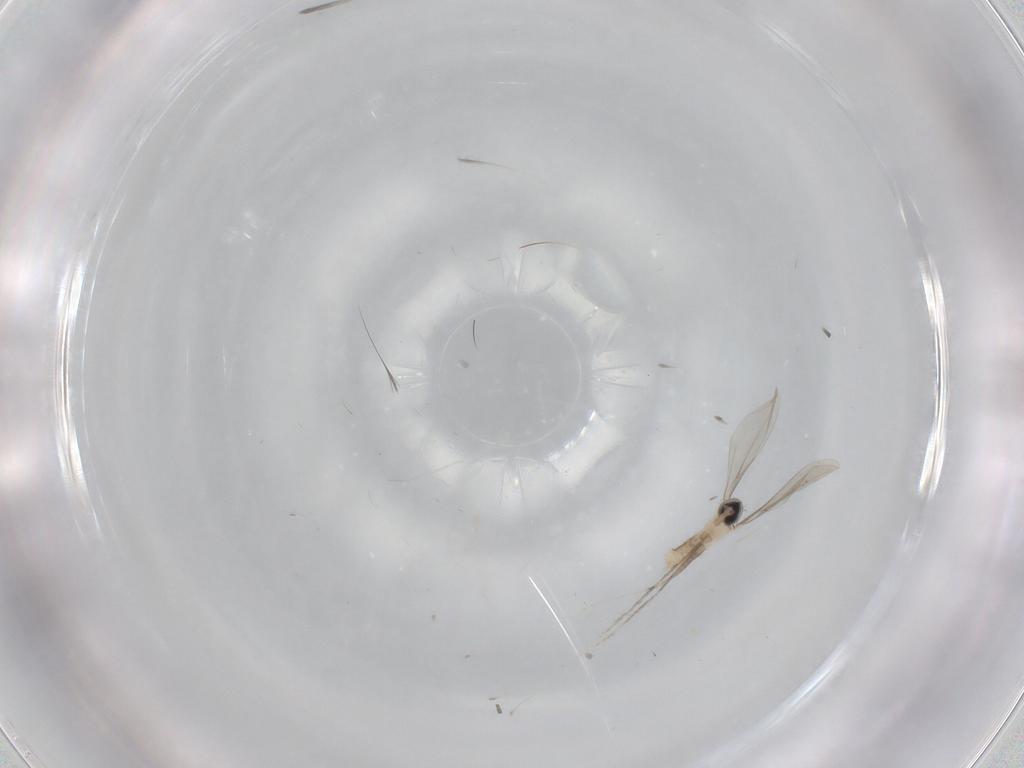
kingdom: Animalia
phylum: Arthropoda
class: Insecta
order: Diptera
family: Cecidomyiidae
